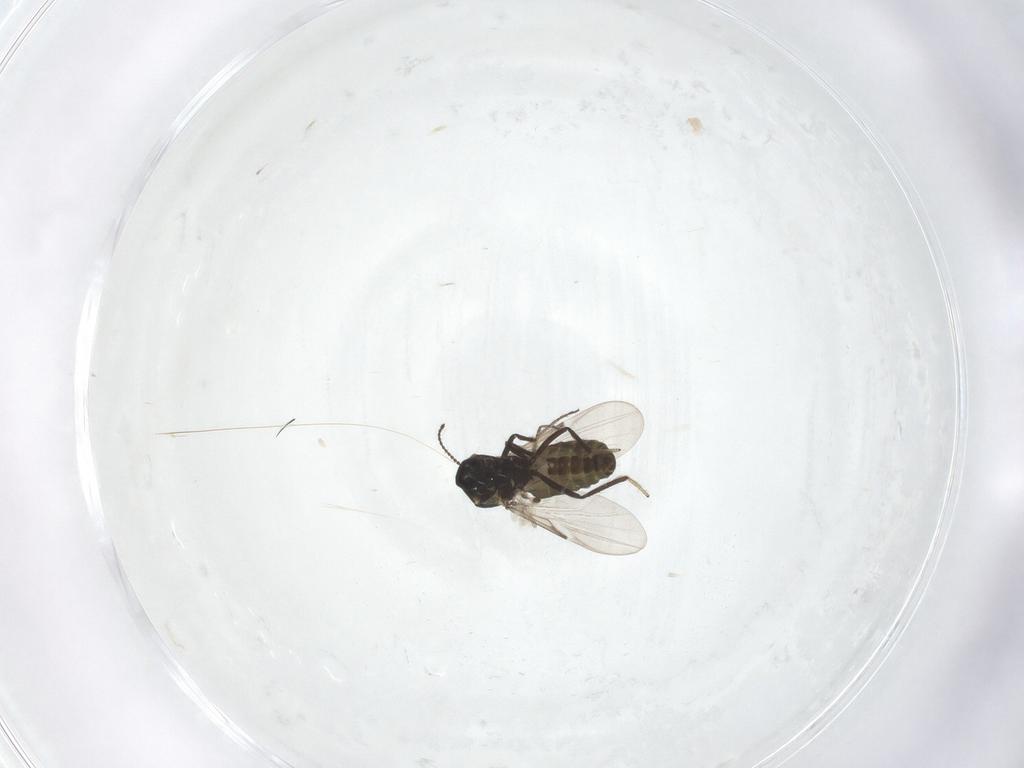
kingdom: Animalia
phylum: Arthropoda
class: Insecta
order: Diptera
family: Ceratopogonidae
